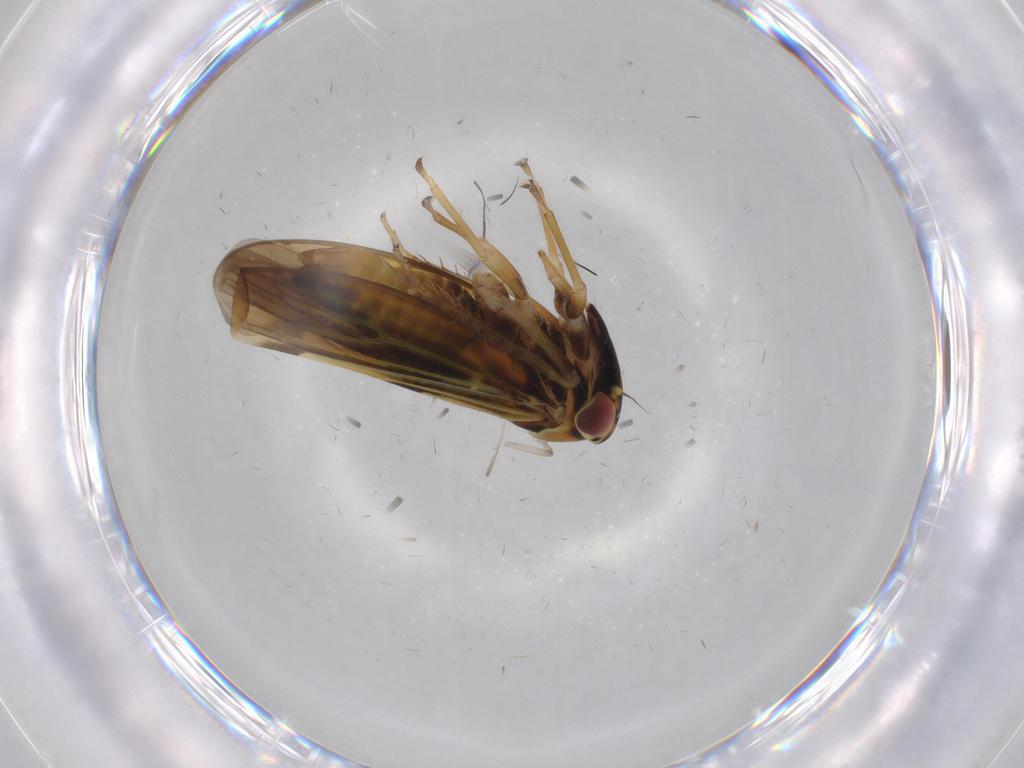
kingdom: Animalia
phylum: Arthropoda
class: Insecta
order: Hemiptera
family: Cicadellidae
